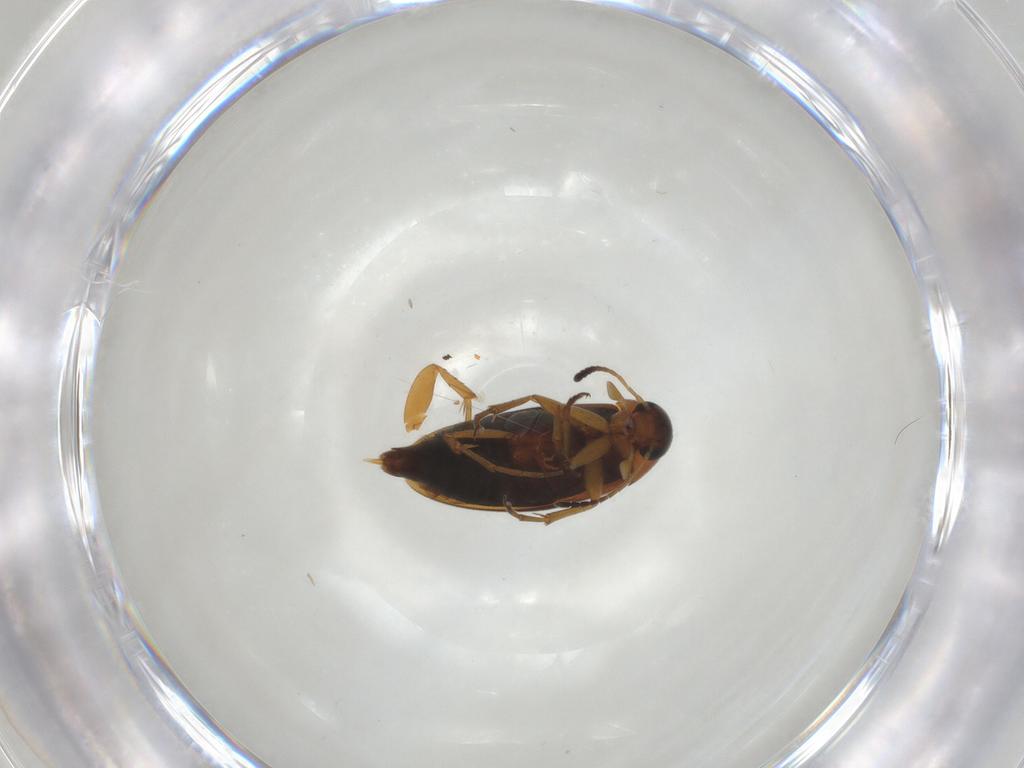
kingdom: Animalia
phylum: Arthropoda
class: Insecta
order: Coleoptera
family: Scraptiidae
